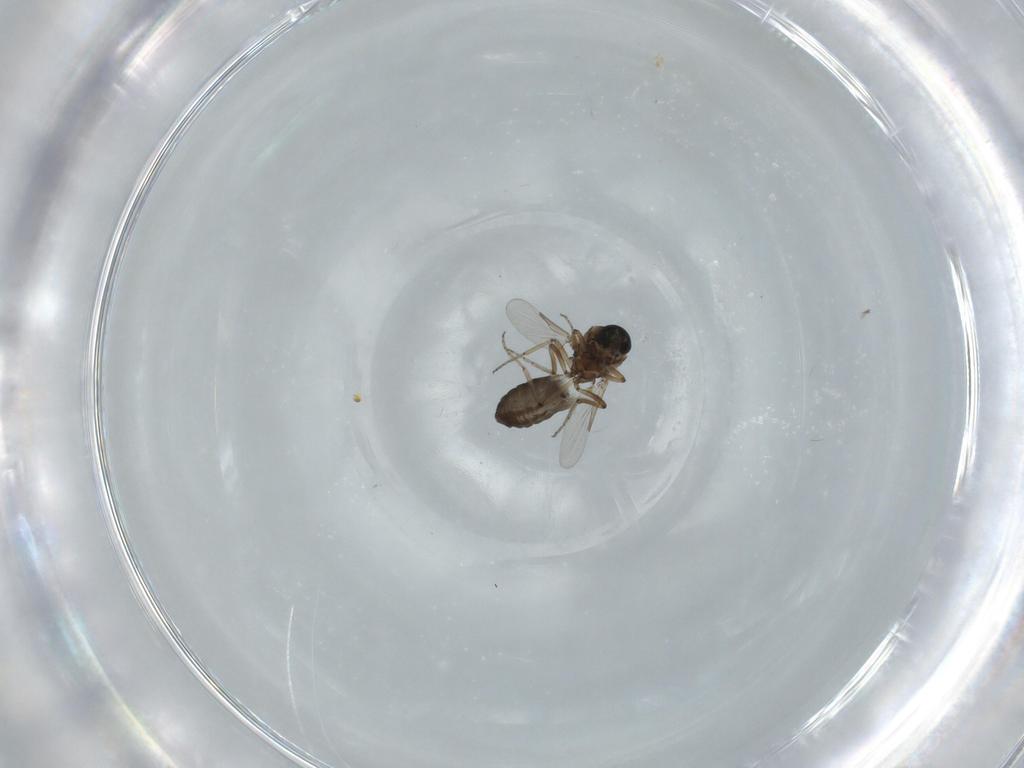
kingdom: Animalia
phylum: Arthropoda
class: Insecta
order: Diptera
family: Ceratopogonidae
